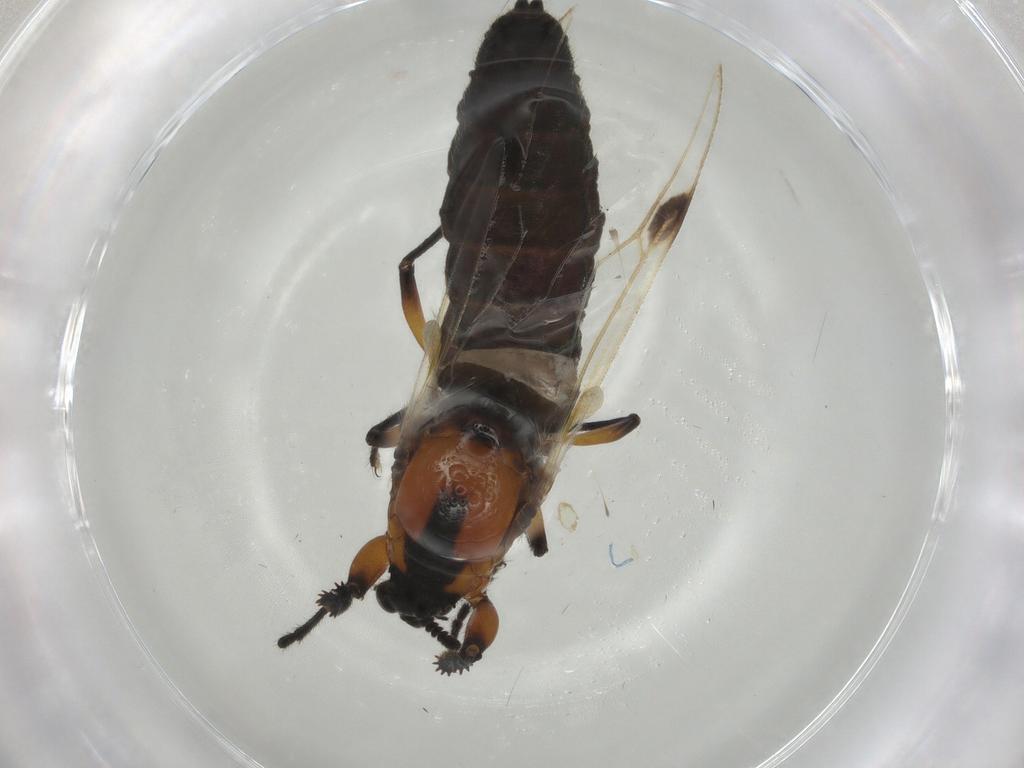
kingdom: Animalia
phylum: Arthropoda
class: Insecta
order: Diptera
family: Bibionidae
